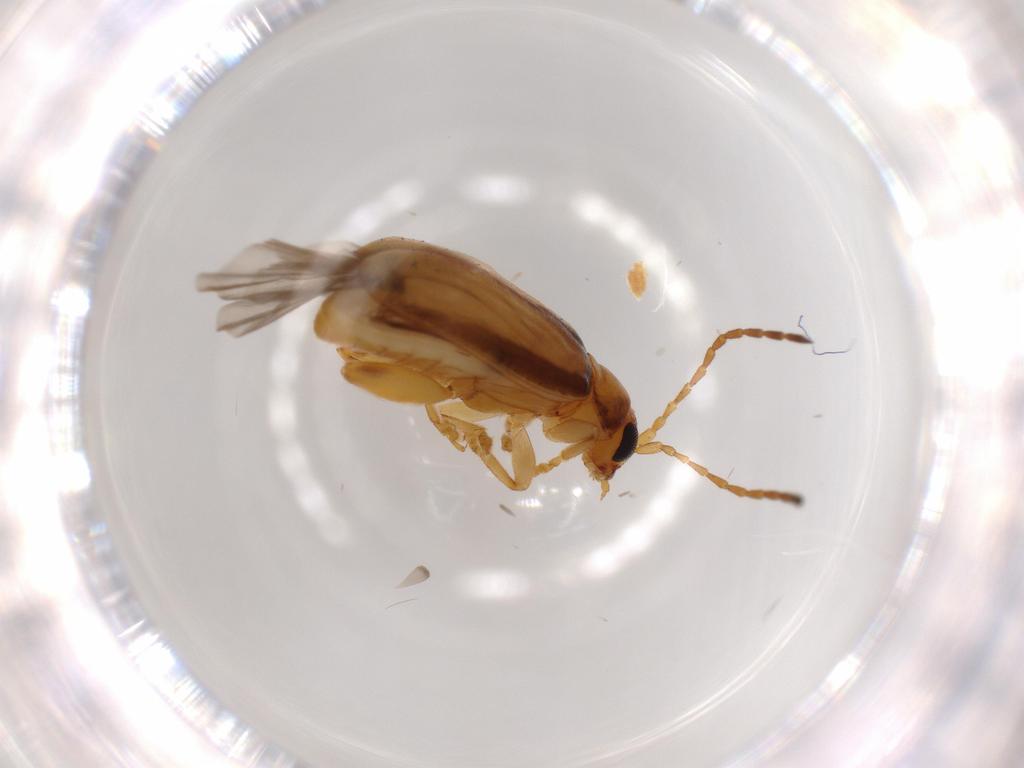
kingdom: Animalia
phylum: Arthropoda
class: Insecta
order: Coleoptera
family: Chrysomelidae
